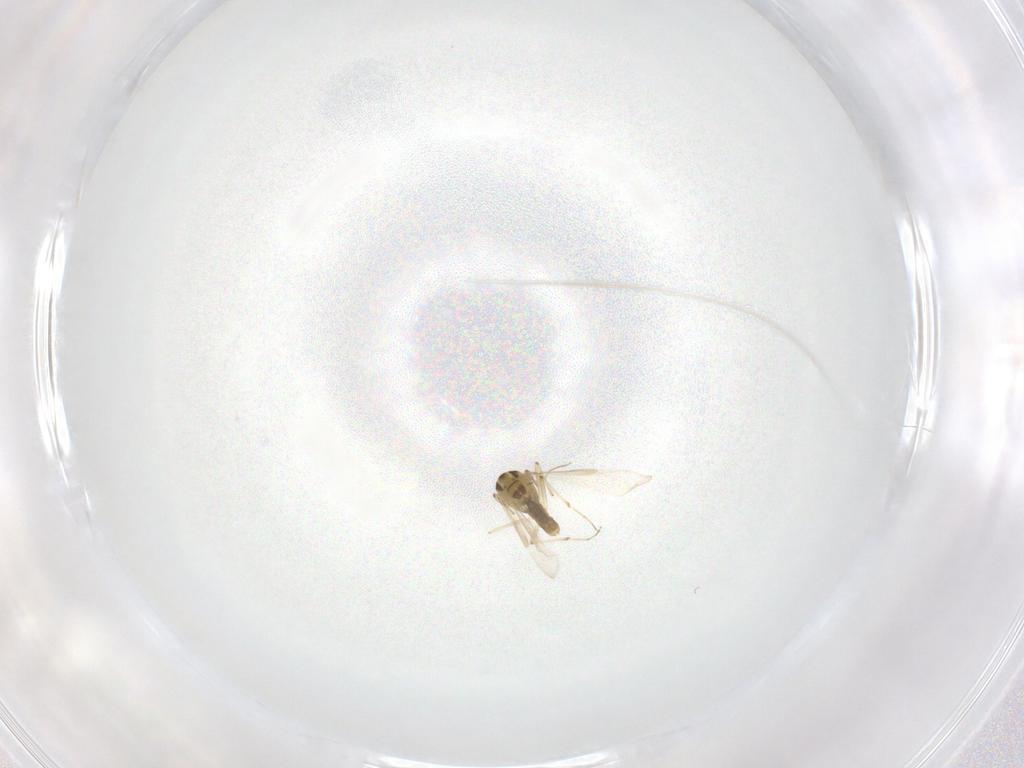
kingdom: Animalia
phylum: Arthropoda
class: Insecta
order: Diptera
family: Chironomidae
